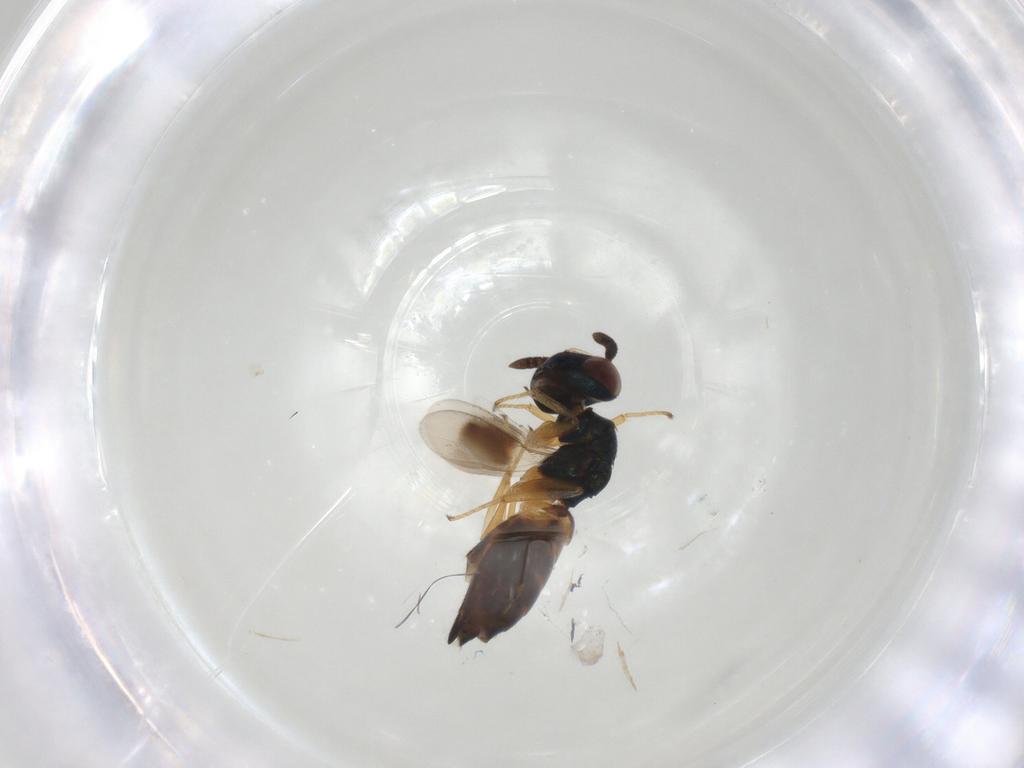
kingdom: Animalia
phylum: Arthropoda
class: Insecta
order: Hymenoptera
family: Pteromalidae
